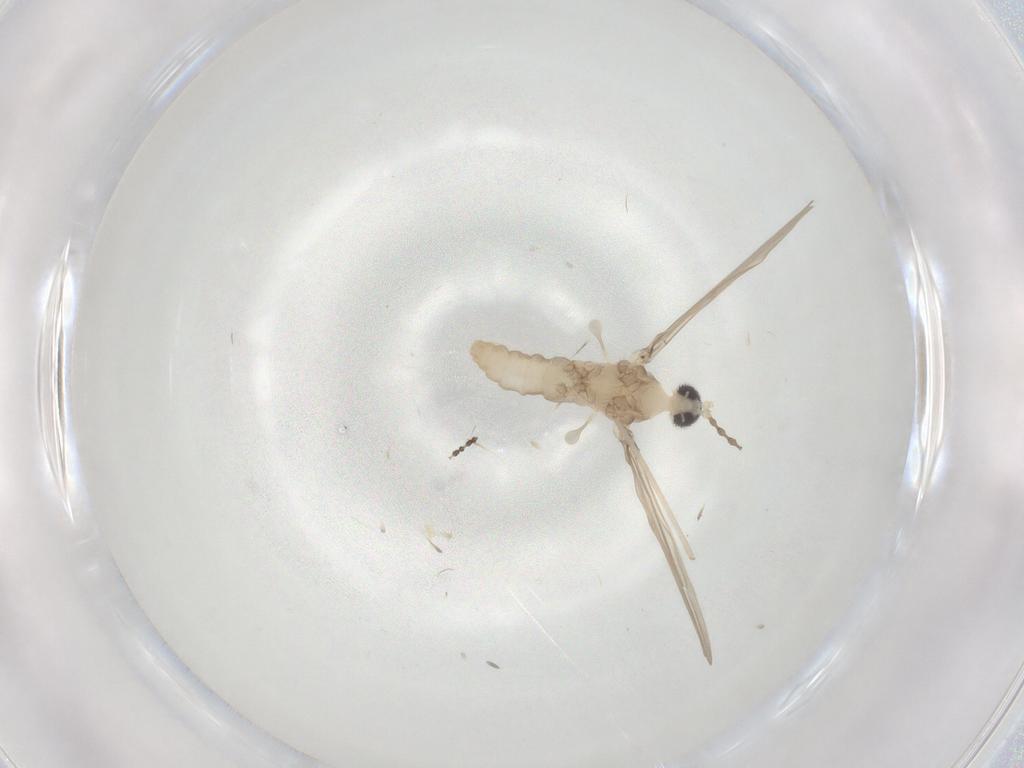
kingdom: Animalia
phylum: Arthropoda
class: Insecta
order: Diptera
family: Cecidomyiidae
